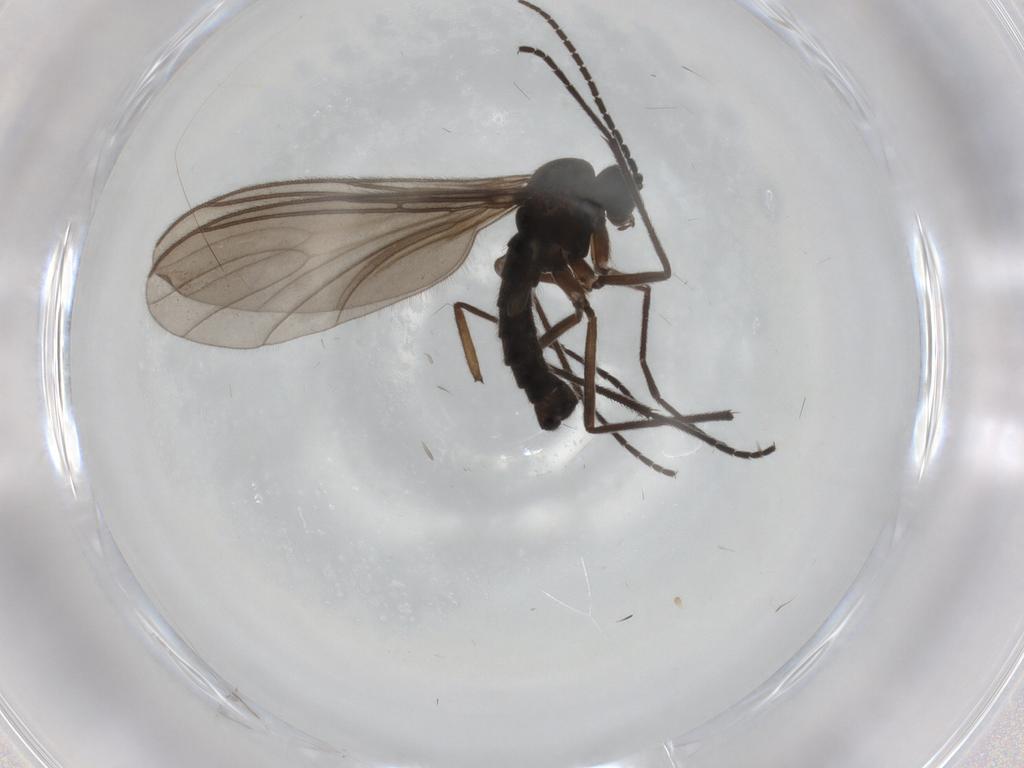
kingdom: Animalia
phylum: Arthropoda
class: Insecta
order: Diptera
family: Sciaridae
